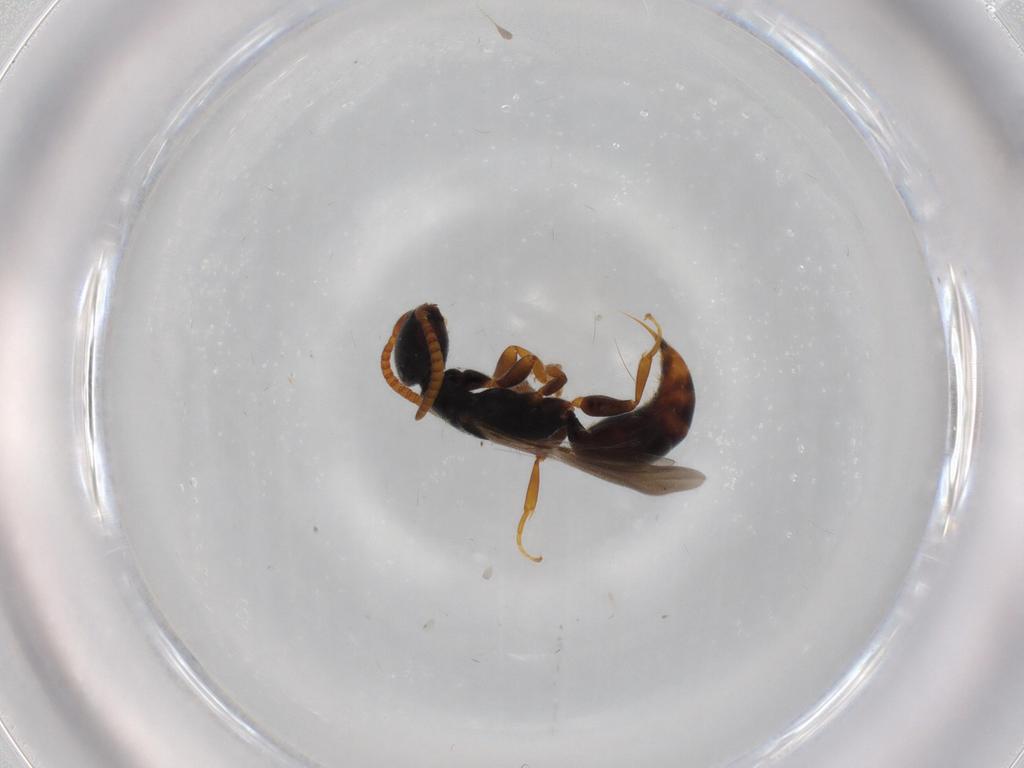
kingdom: Animalia
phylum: Arthropoda
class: Insecta
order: Hymenoptera
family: Bethylidae
